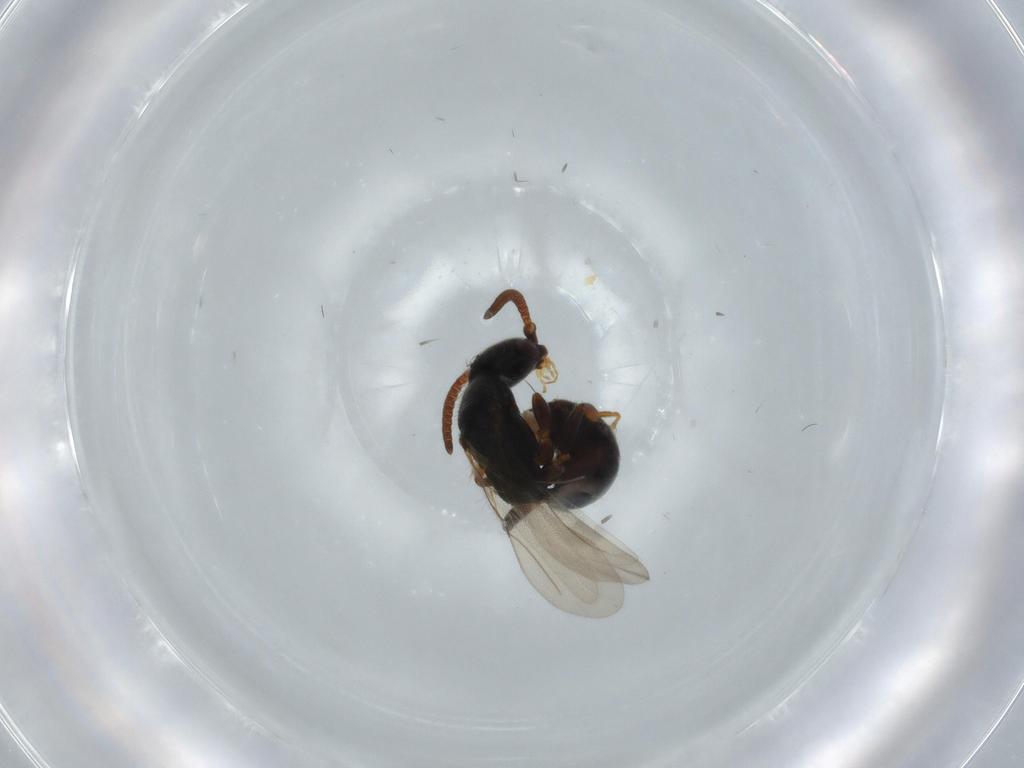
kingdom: Animalia
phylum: Arthropoda
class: Insecta
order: Hymenoptera
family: Bethylidae
